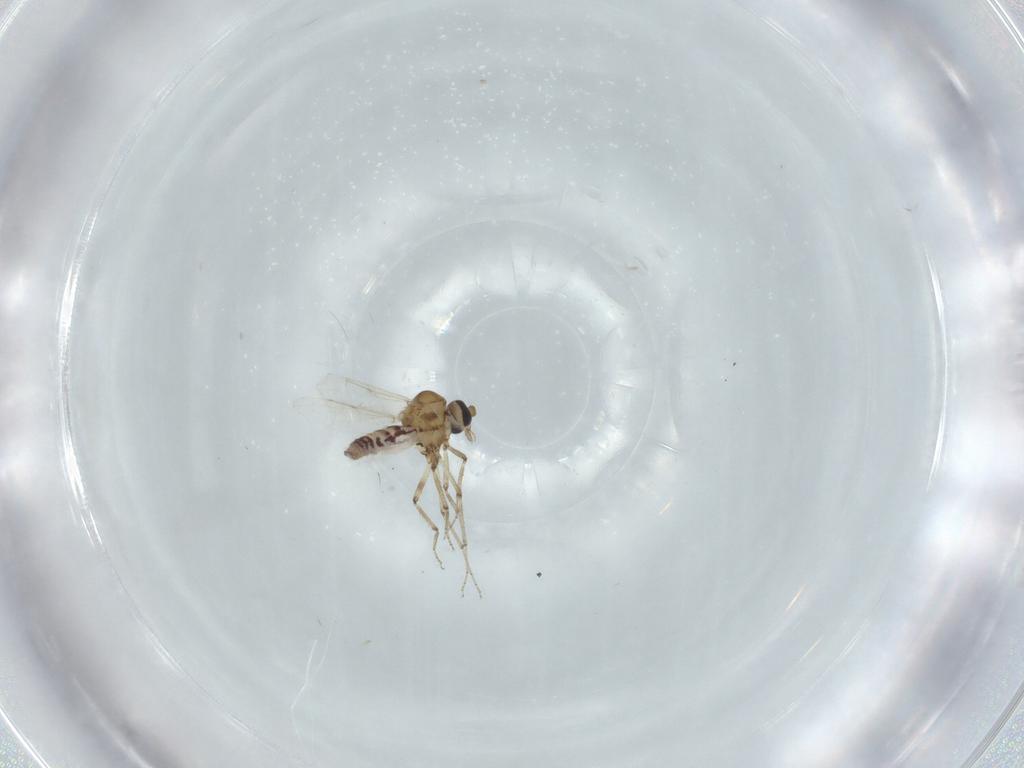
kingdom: Animalia
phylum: Arthropoda
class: Insecta
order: Diptera
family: Ceratopogonidae
